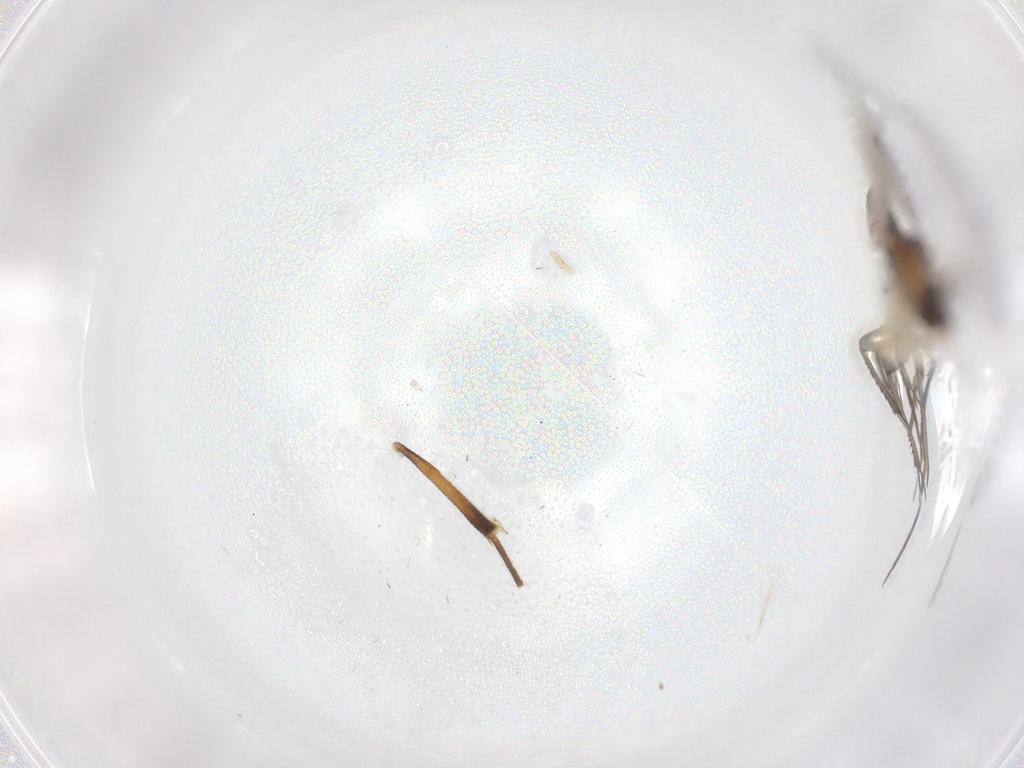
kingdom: Animalia
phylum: Arthropoda
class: Insecta
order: Diptera
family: Mycetophilidae
